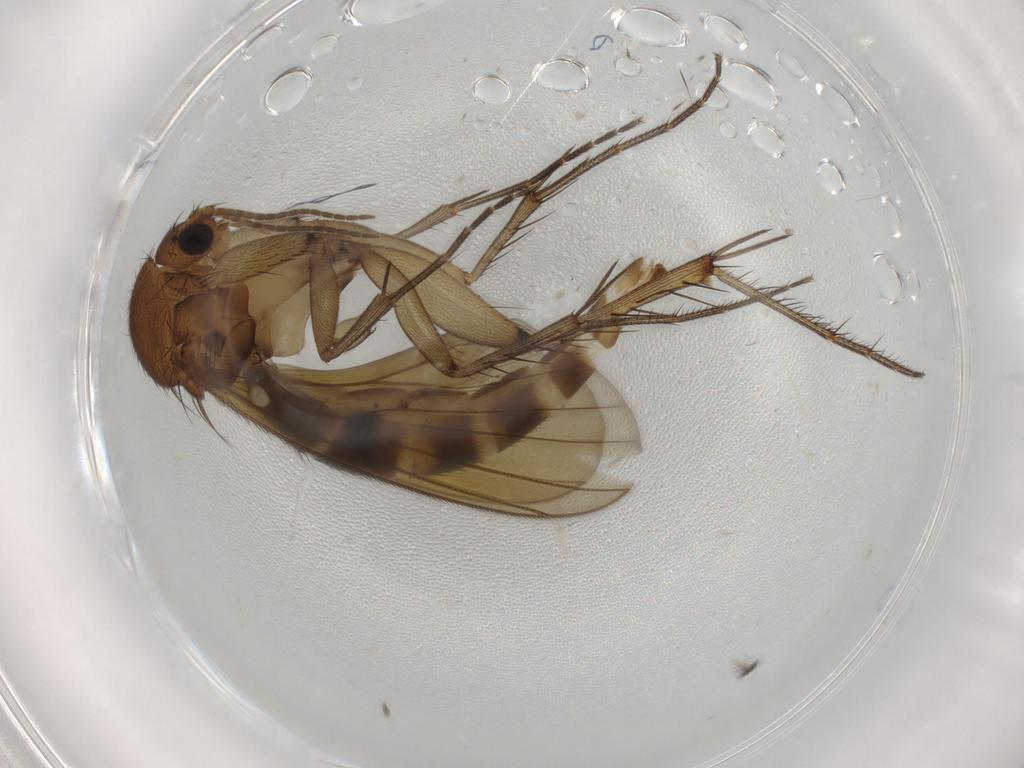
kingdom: Animalia
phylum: Arthropoda
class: Insecta
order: Diptera
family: Mycetophilidae
